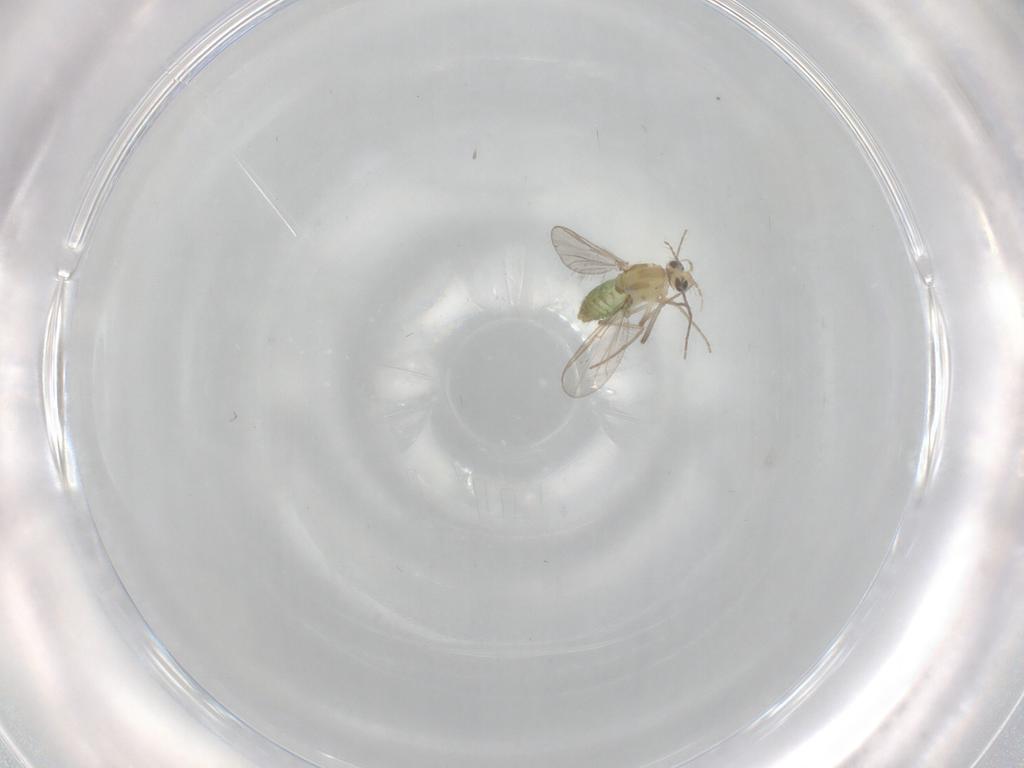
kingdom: Animalia
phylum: Arthropoda
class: Insecta
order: Diptera
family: Chironomidae
